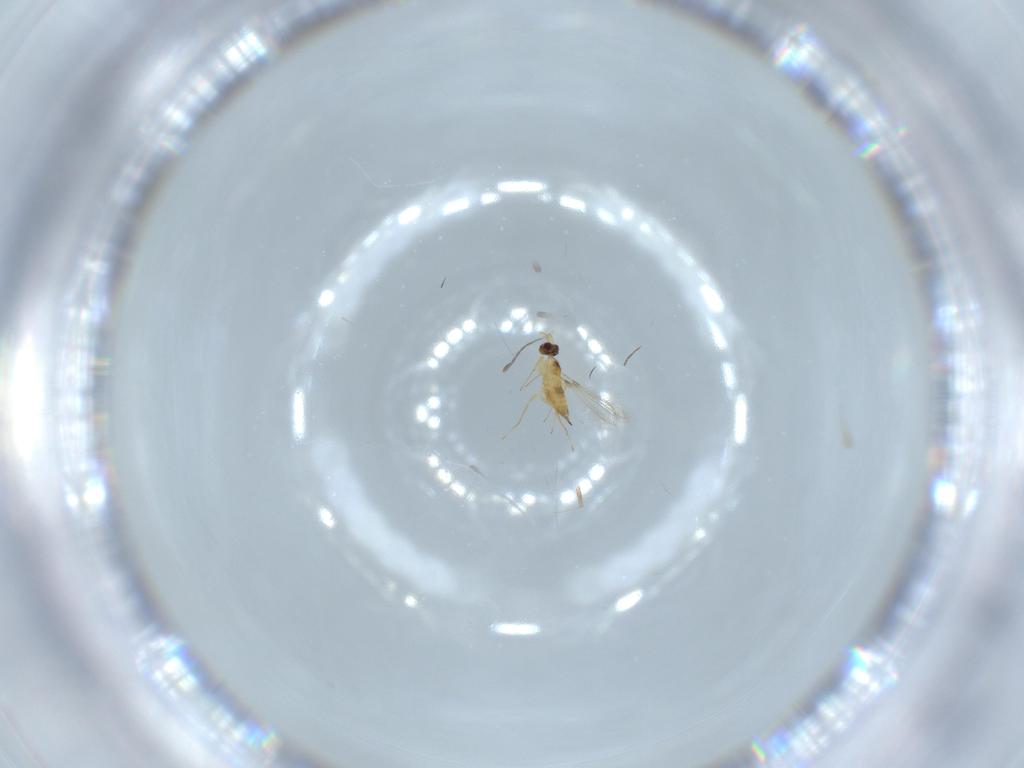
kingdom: Animalia
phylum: Arthropoda
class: Insecta
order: Hymenoptera
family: Mymaridae
